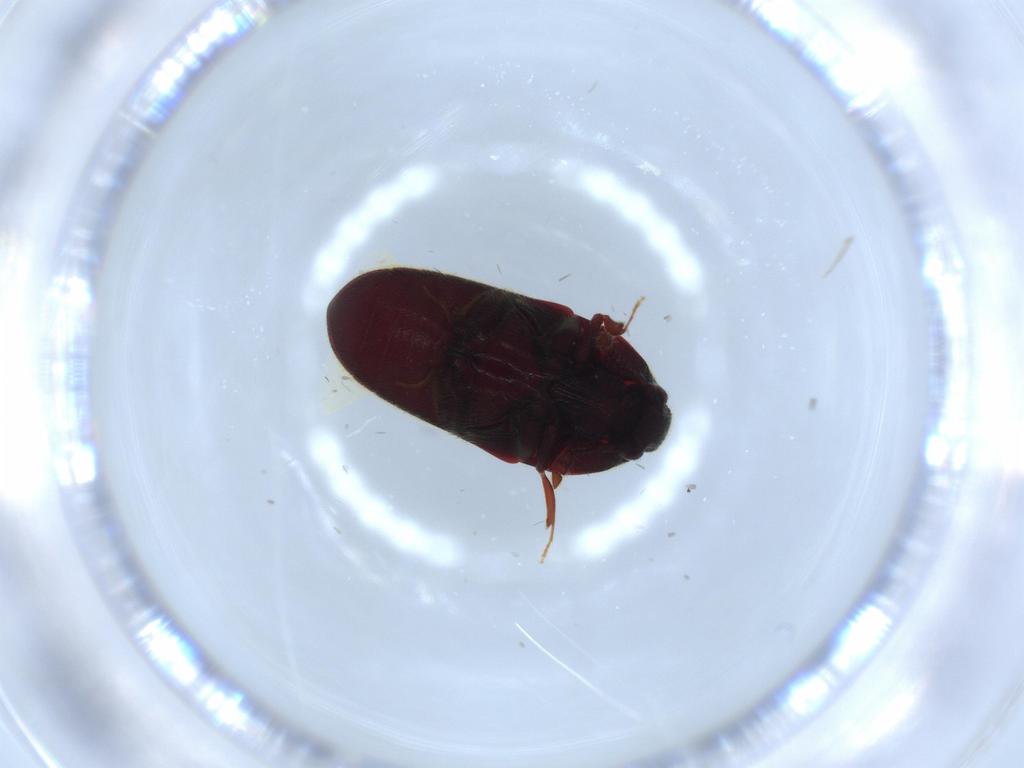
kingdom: Animalia
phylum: Arthropoda
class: Insecta
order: Coleoptera
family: Throscidae
